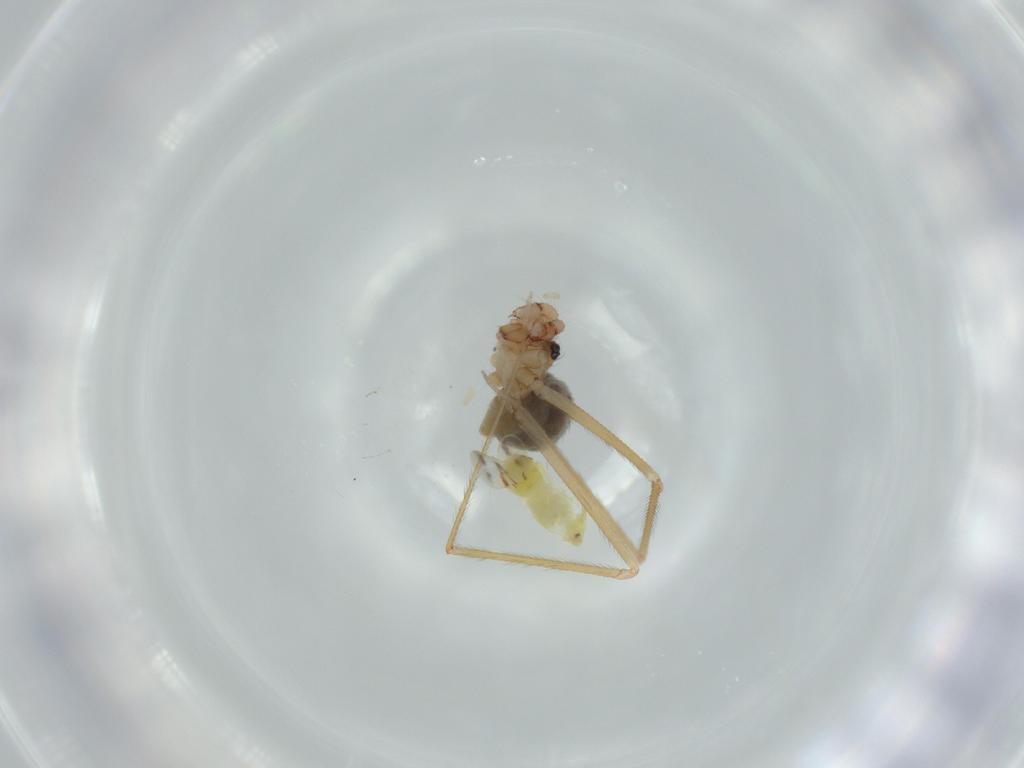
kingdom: Animalia
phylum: Arthropoda
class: Arachnida
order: Araneae
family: Pholcidae
